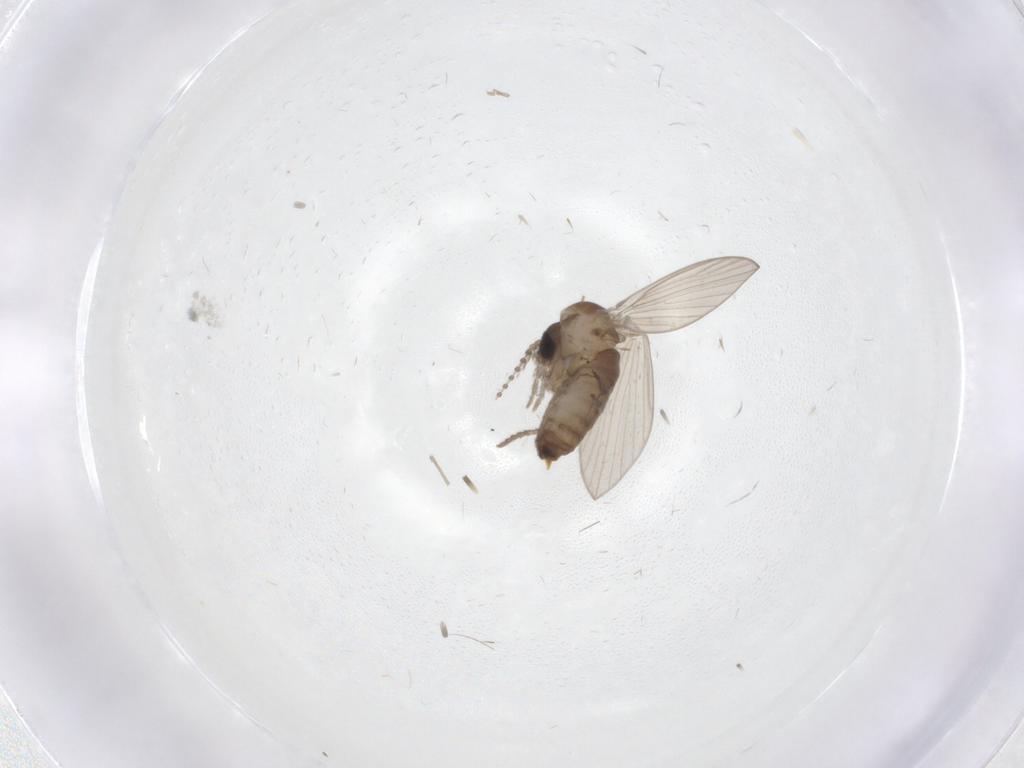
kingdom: Animalia
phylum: Arthropoda
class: Insecta
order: Diptera
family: Psychodidae
